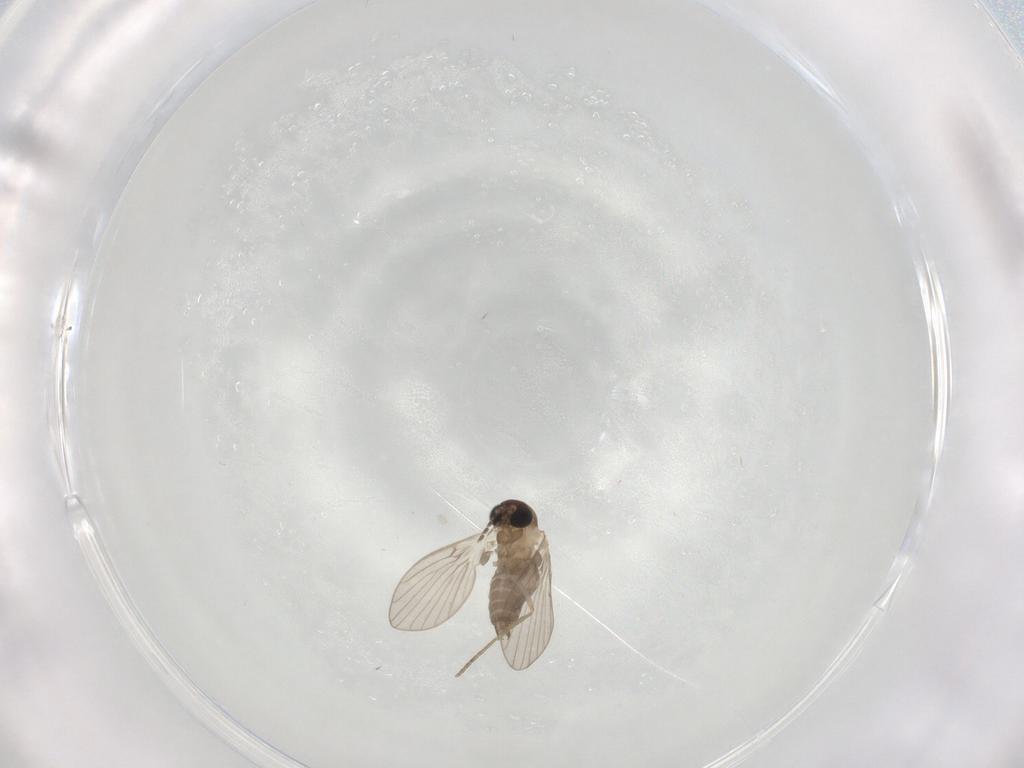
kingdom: Animalia
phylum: Arthropoda
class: Insecta
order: Diptera
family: Psychodidae
